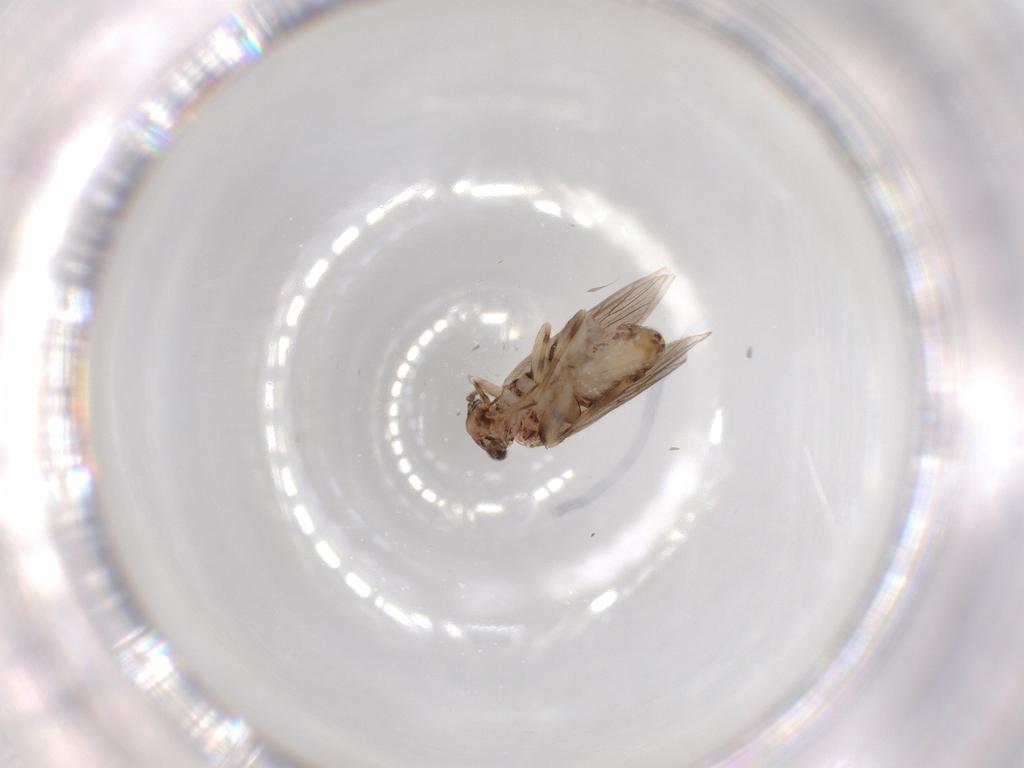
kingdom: Animalia
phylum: Arthropoda
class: Insecta
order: Psocodea
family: Lepidopsocidae
